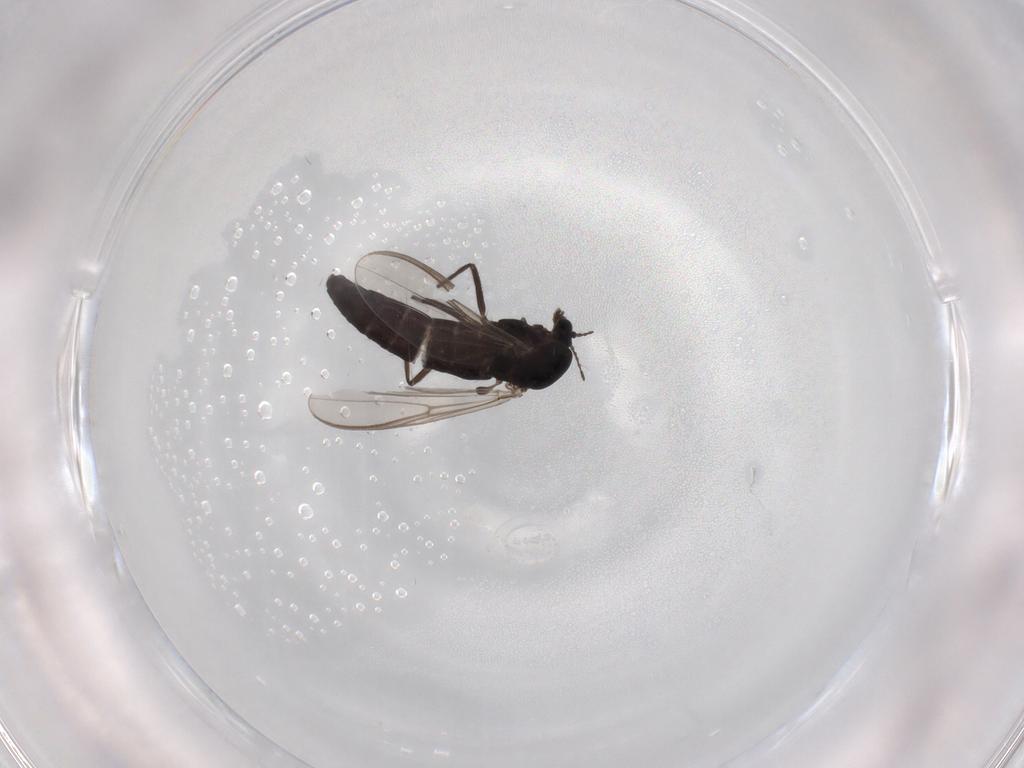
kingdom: Animalia
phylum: Arthropoda
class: Insecta
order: Diptera
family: Chironomidae
